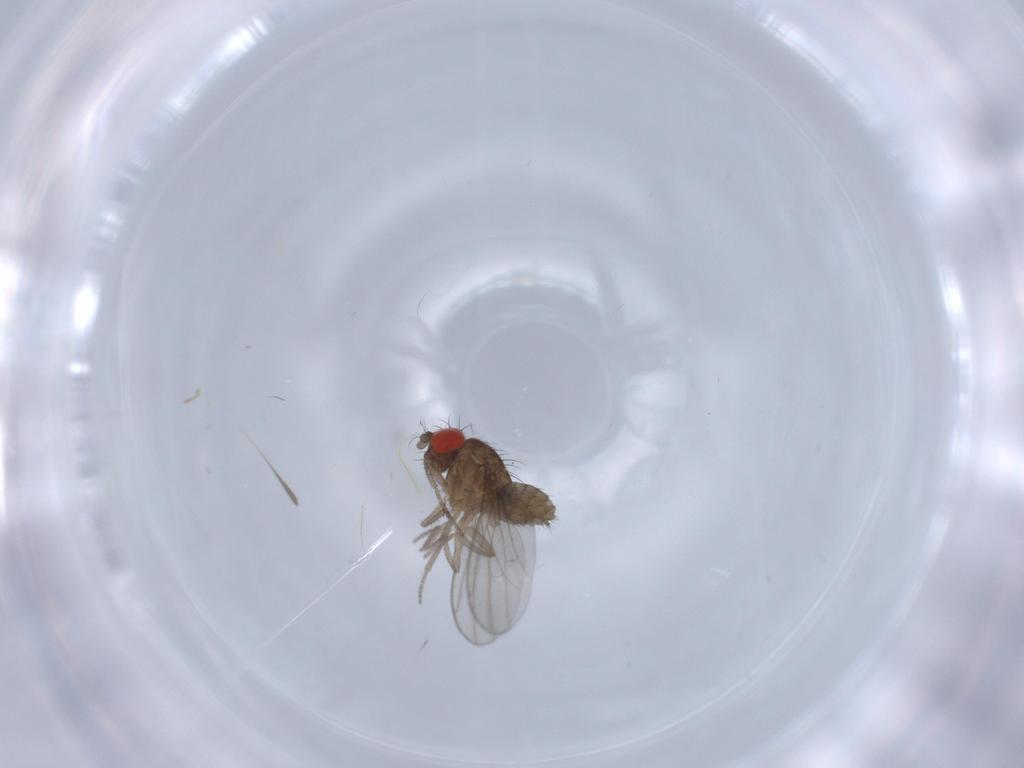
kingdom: Animalia
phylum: Arthropoda
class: Insecta
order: Diptera
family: Drosophilidae
